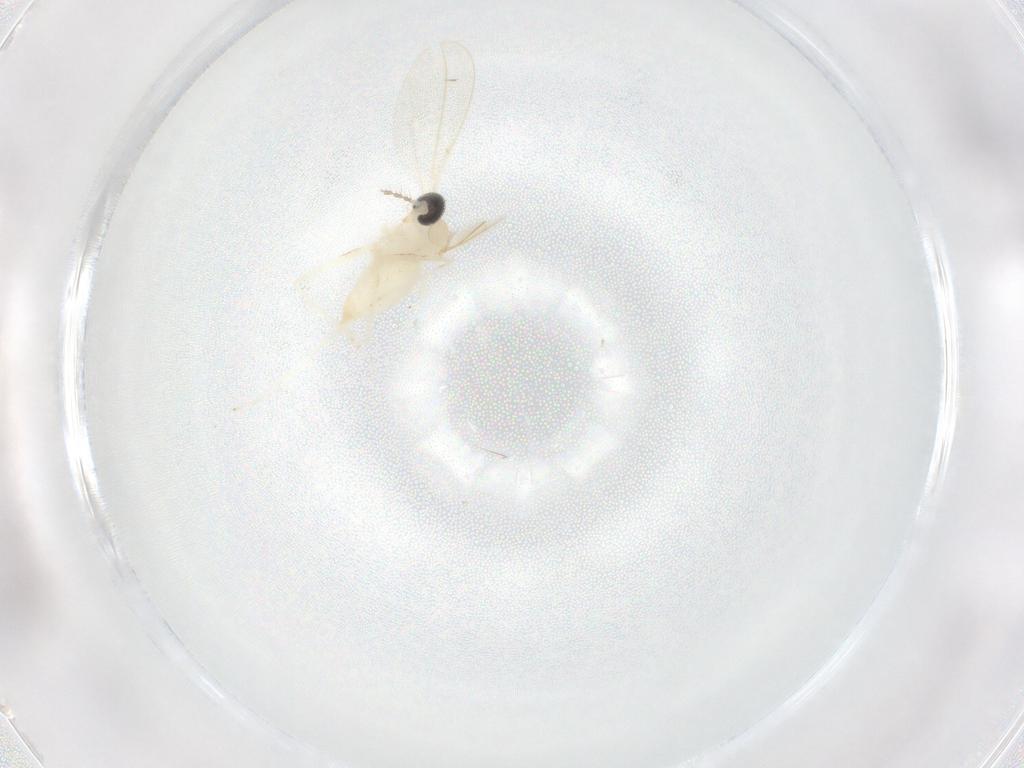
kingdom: Animalia
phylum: Arthropoda
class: Insecta
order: Diptera
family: Cecidomyiidae
